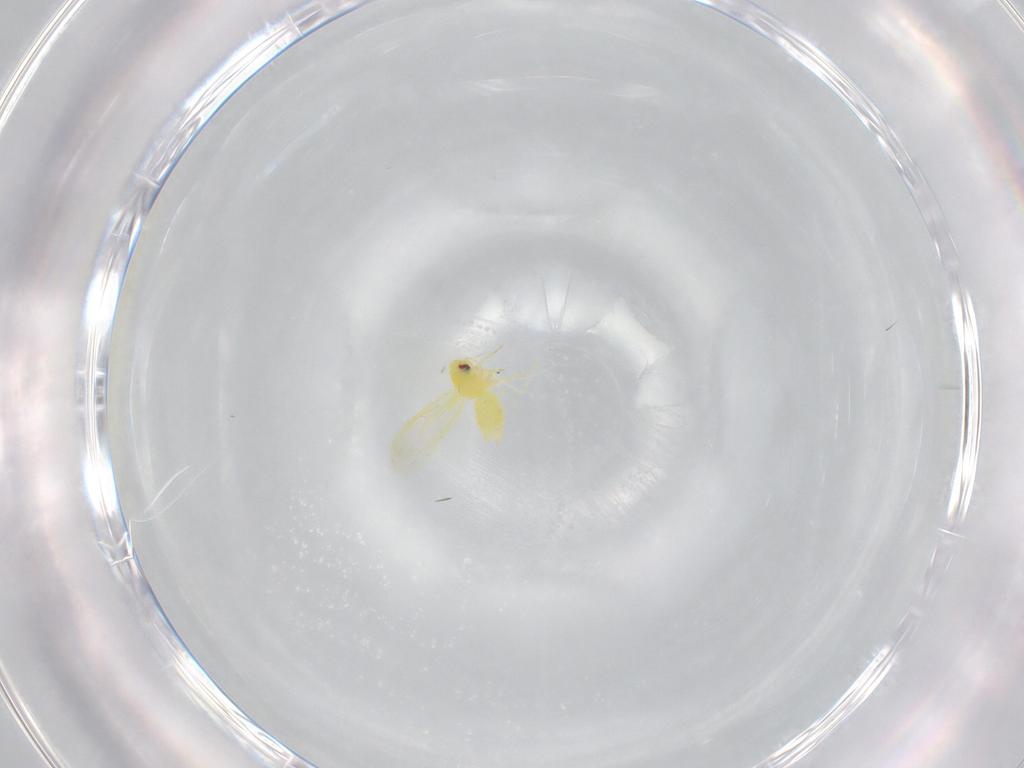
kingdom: Animalia
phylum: Arthropoda
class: Insecta
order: Hemiptera
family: Aleyrodidae
